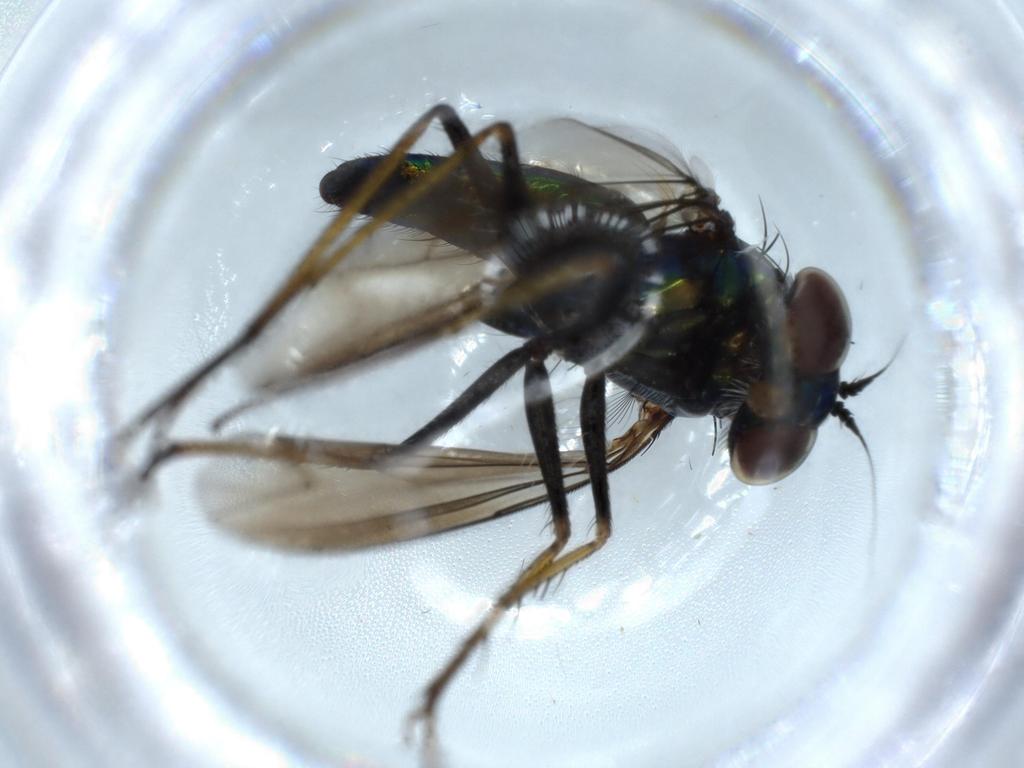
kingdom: Animalia
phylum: Arthropoda
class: Insecta
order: Diptera
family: Dolichopodidae
